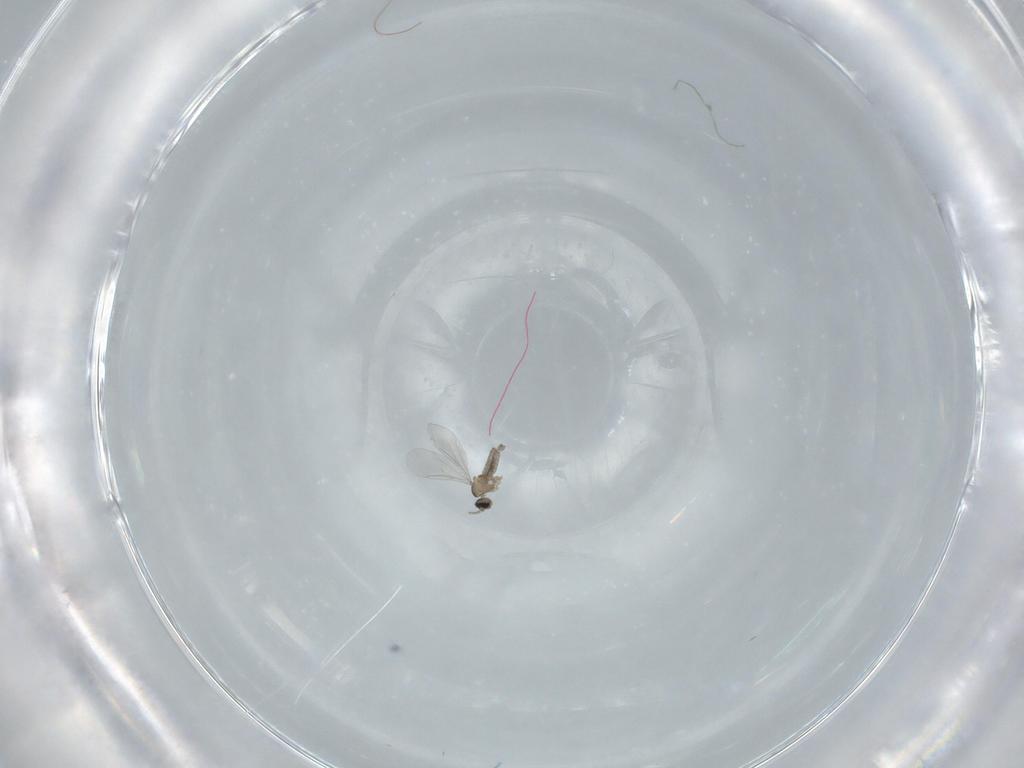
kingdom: Animalia
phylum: Arthropoda
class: Insecta
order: Diptera
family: Cecidomyiidae
